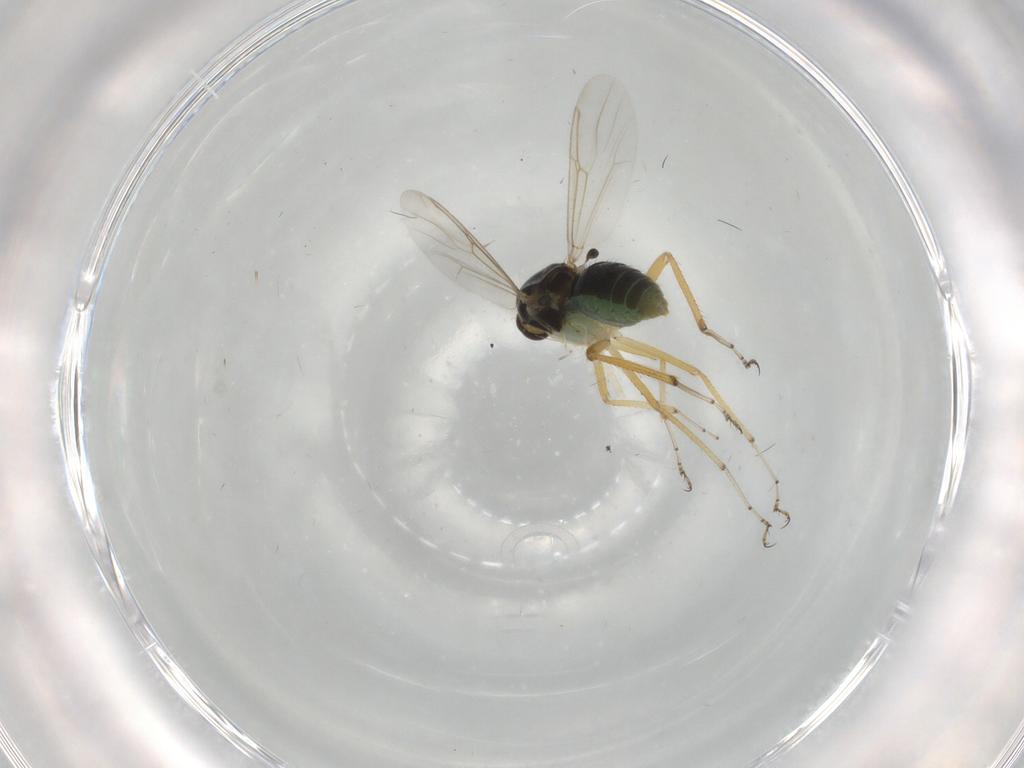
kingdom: Animalia
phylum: Arthropoda
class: Insecta
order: Diptera
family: Ceratopogonidae
